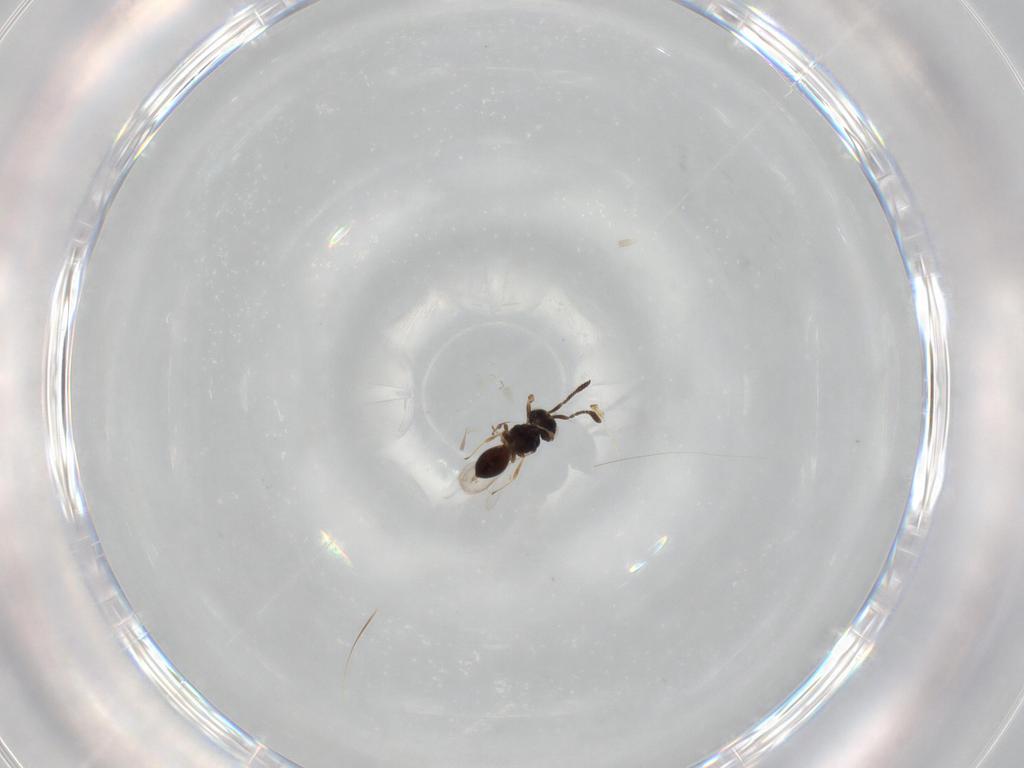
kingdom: Animalia
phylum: Arthropoda
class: Insecta
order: Hymenoptera
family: Scelionidae
